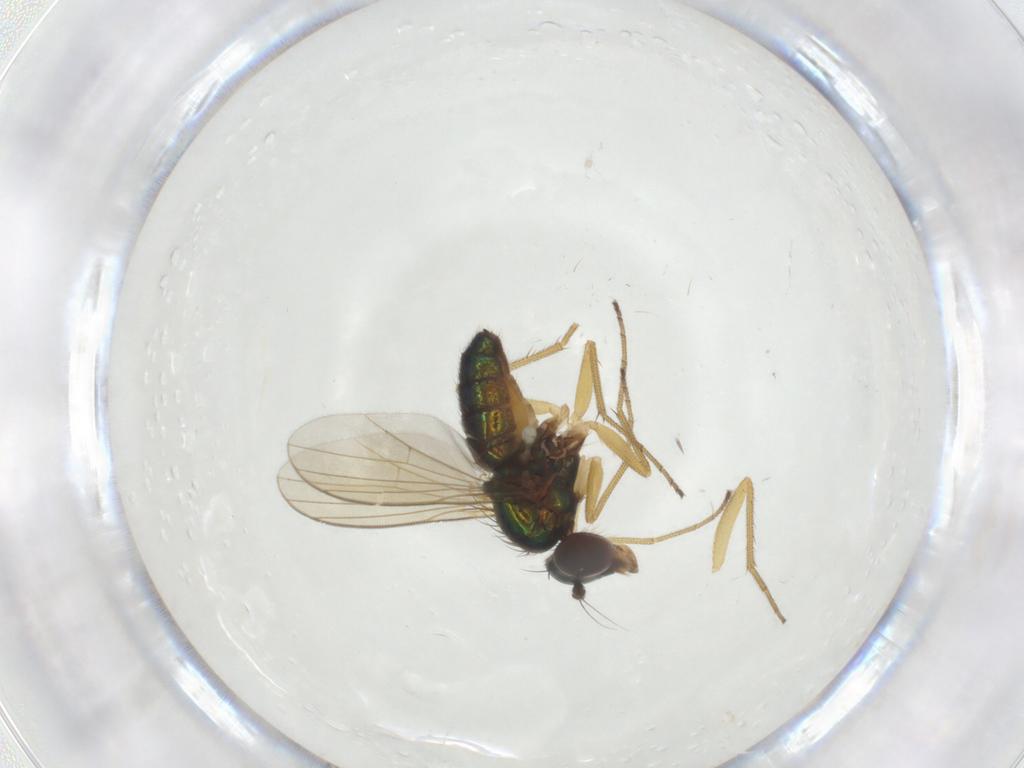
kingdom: Animalia
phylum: Arthropoda
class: Insecta
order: Diptera
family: Dolichopodidae
